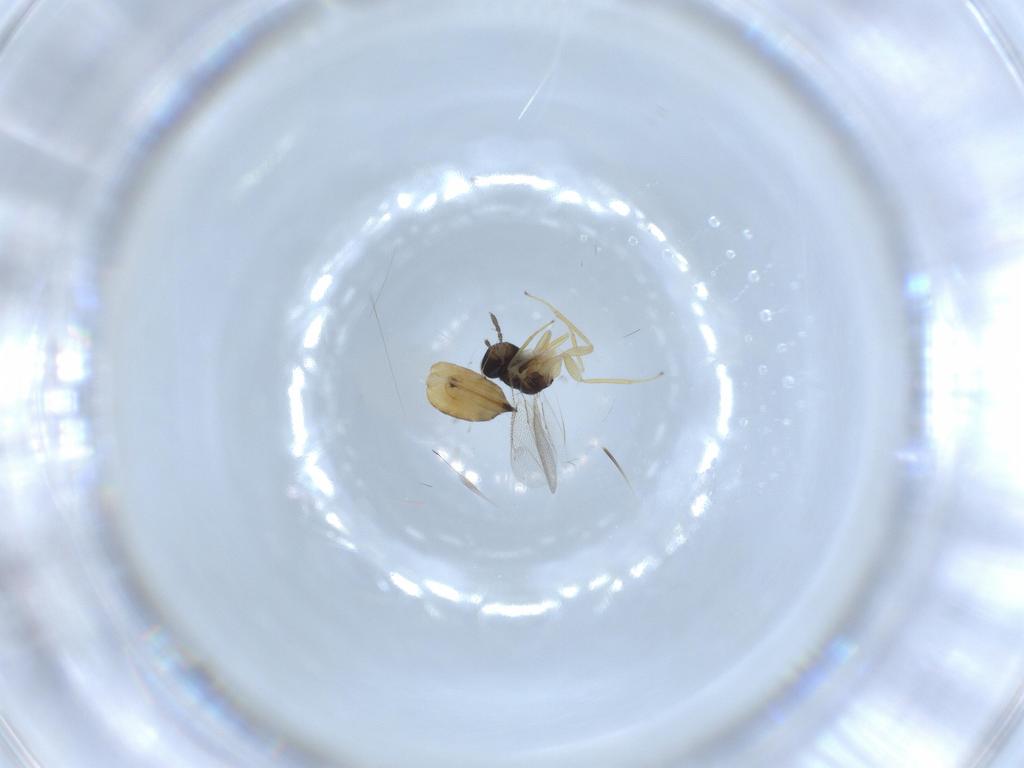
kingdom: Animalia
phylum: Arthropoda
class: Insecta
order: Hymenoptera
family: Eulophidae
